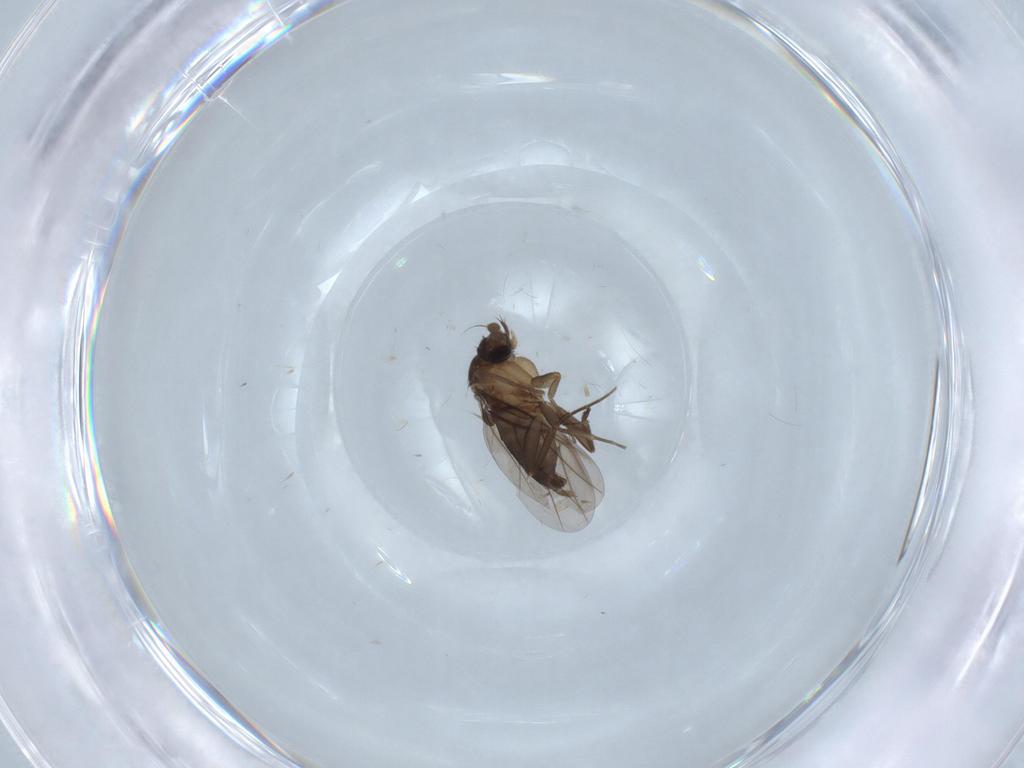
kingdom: Animalia
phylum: Arthropoda
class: Insecta
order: Diptera
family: Phoridae
